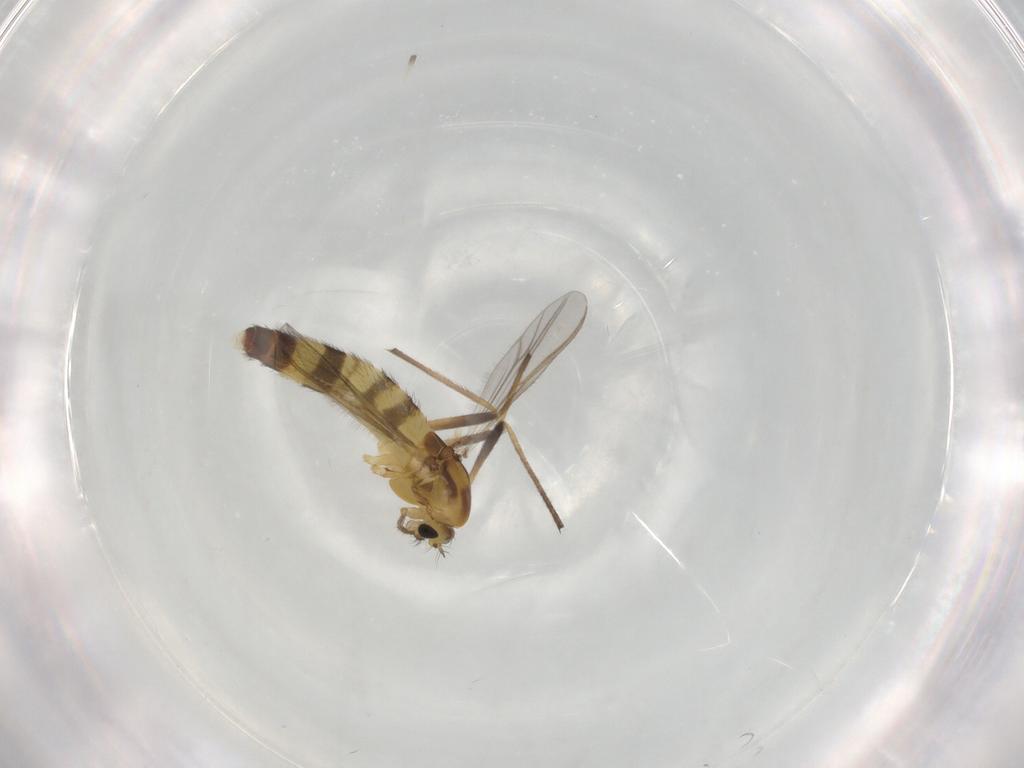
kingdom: Animalia
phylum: Arthropoda
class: Insecta
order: Diptera
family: Chironomidae
